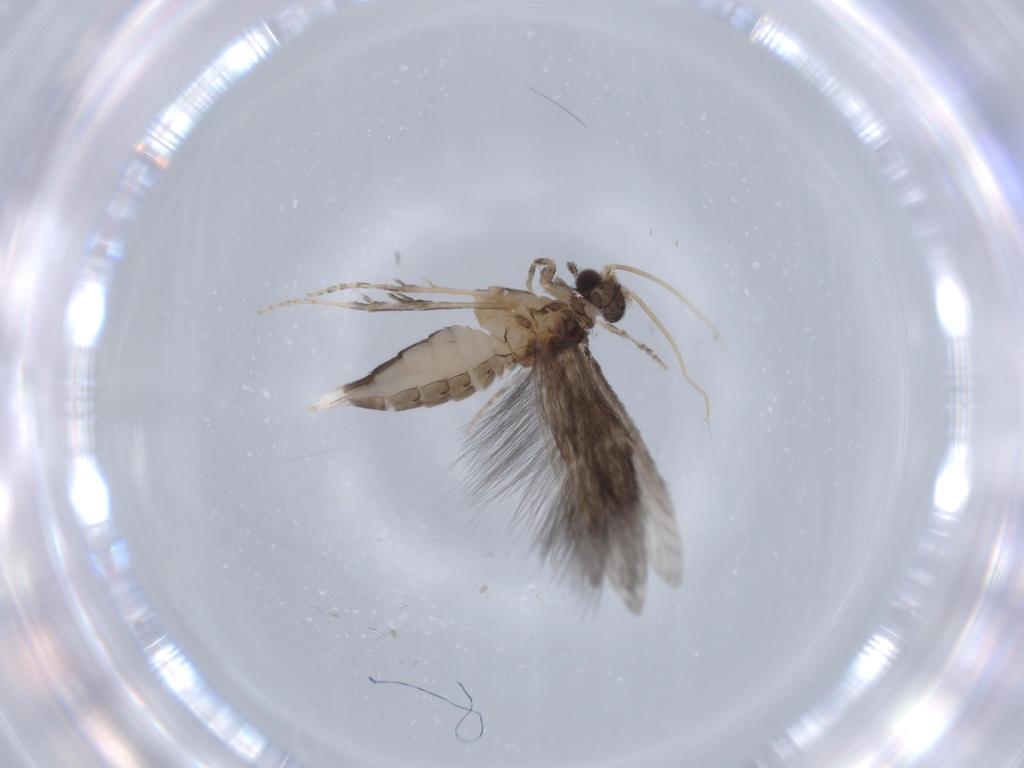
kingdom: Animalia
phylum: Arthropoda
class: Insecta
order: Trichoptera
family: Hydroptilidae
